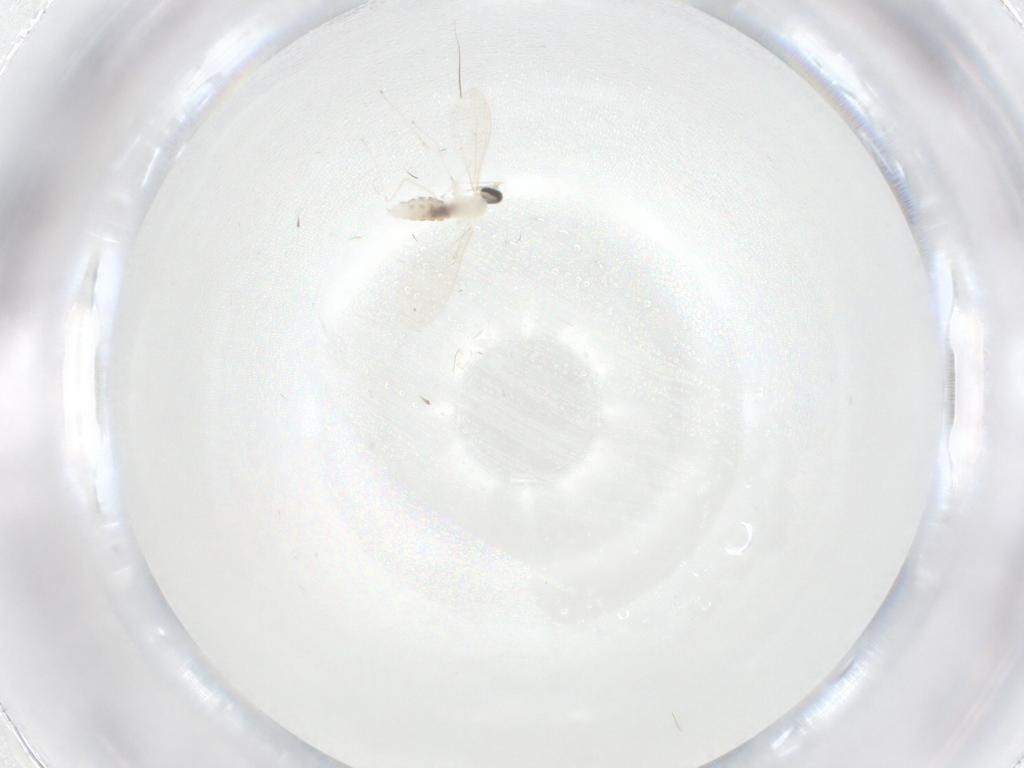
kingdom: Animalia
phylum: Arthropoda
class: Insecta
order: Diptera
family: Cecidomyiidae
